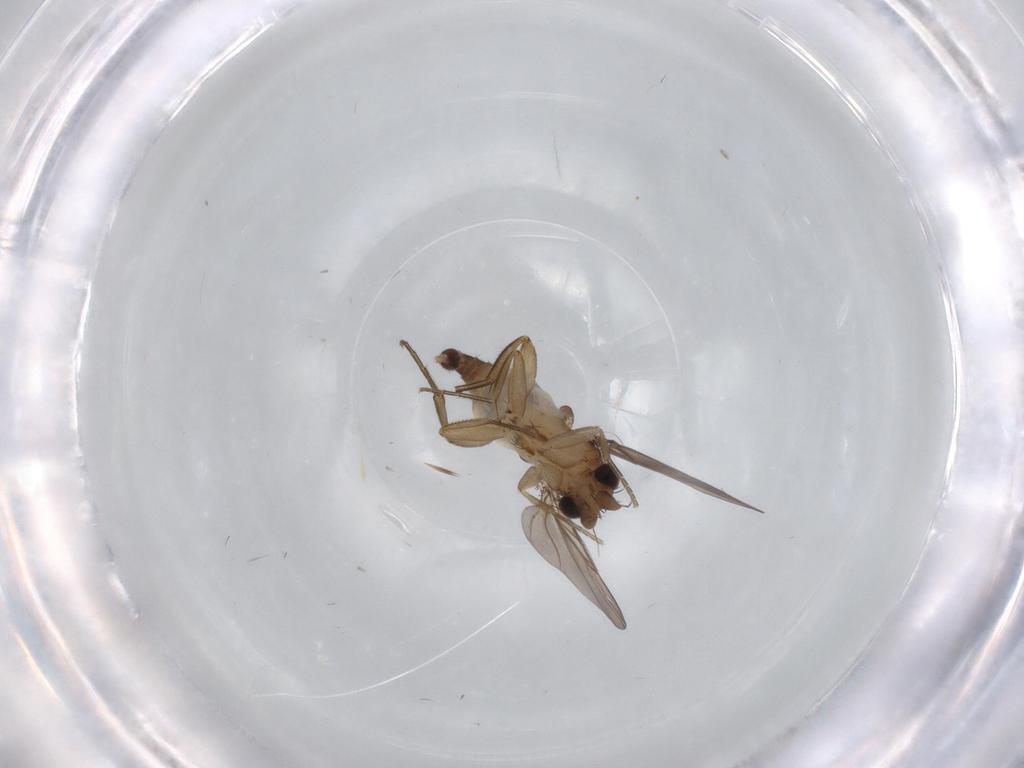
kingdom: Animalia
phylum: Arthropoda
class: Insecta
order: Diptera
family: Phoridae
